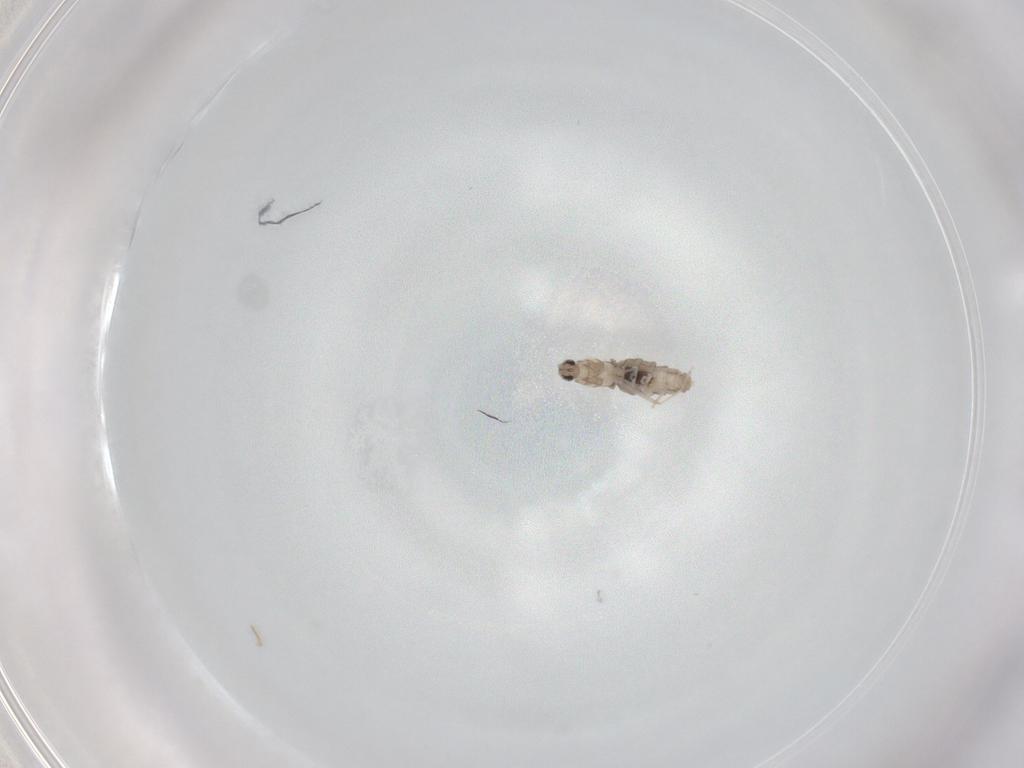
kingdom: Animalia
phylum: Arthropoda
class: Insecta
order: Diptera
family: Cecidomyiidae
